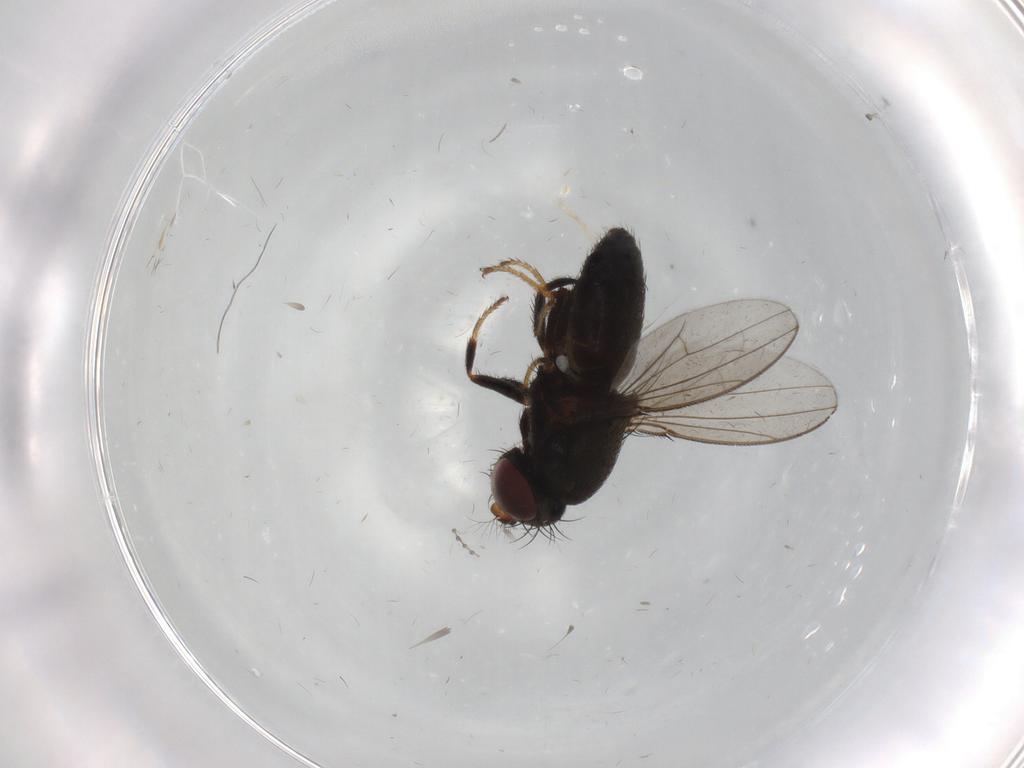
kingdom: Animalia
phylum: Arthropoda
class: Insecta
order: Diptera
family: Ephydridae
